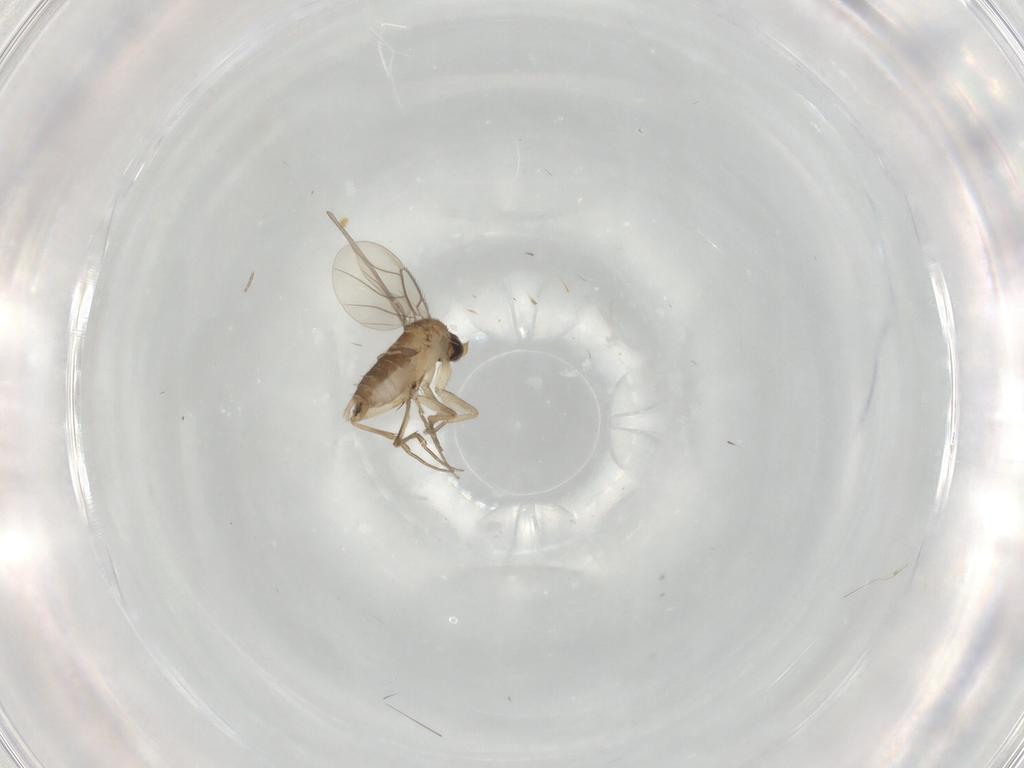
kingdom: Animalia
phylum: Arthropoda
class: Insecta
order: Diptera
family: Phoridae
